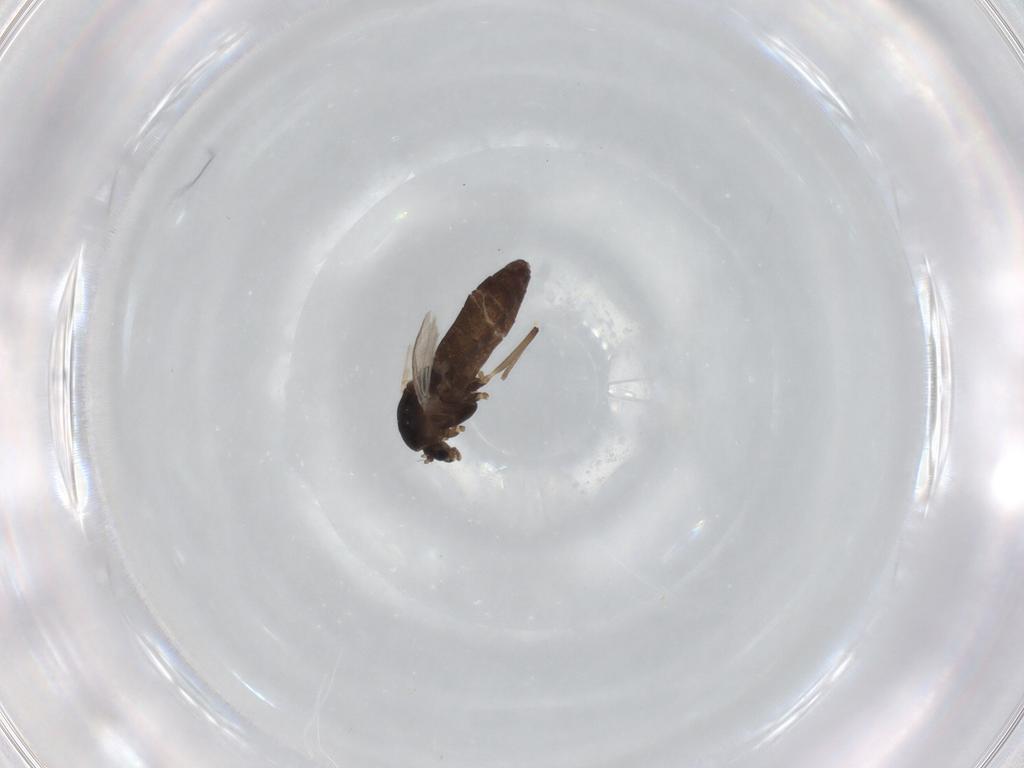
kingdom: Animalia
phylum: Arthropoda
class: Insecta
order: Diptera
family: Chironomidae
